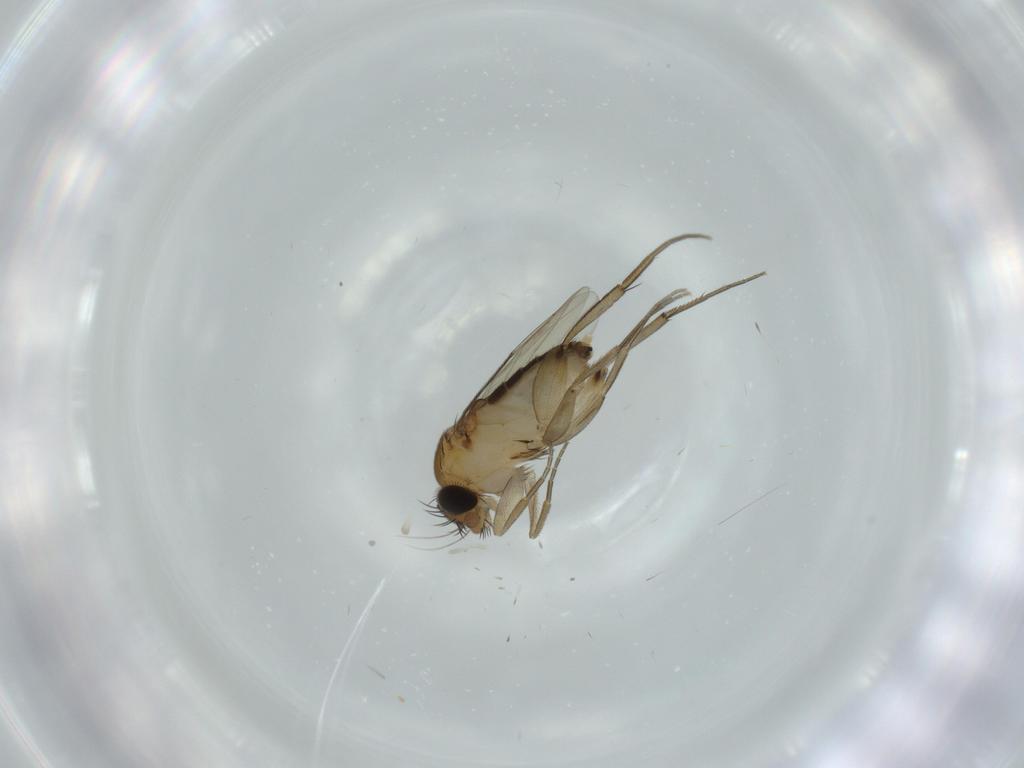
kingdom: Animalia
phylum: Arthropoda
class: Insecta
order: Diptera
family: Phoridae
